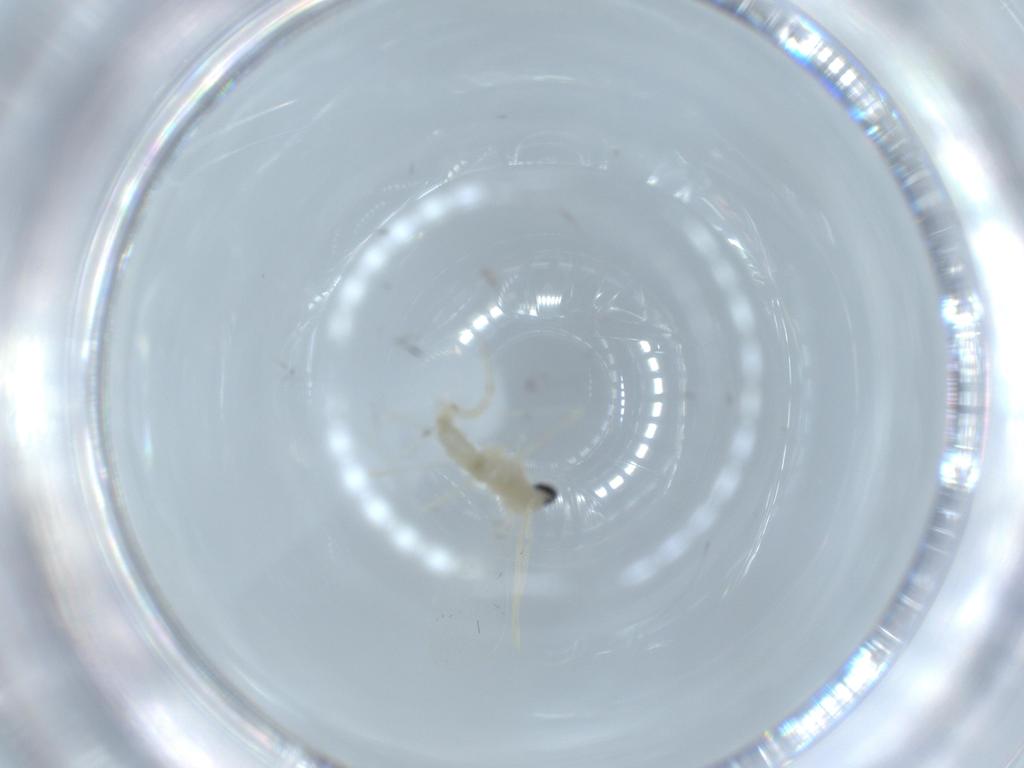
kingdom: Animalia
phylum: Arthropoda
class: Insecta
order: Diptera
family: Cecidomyiidae
